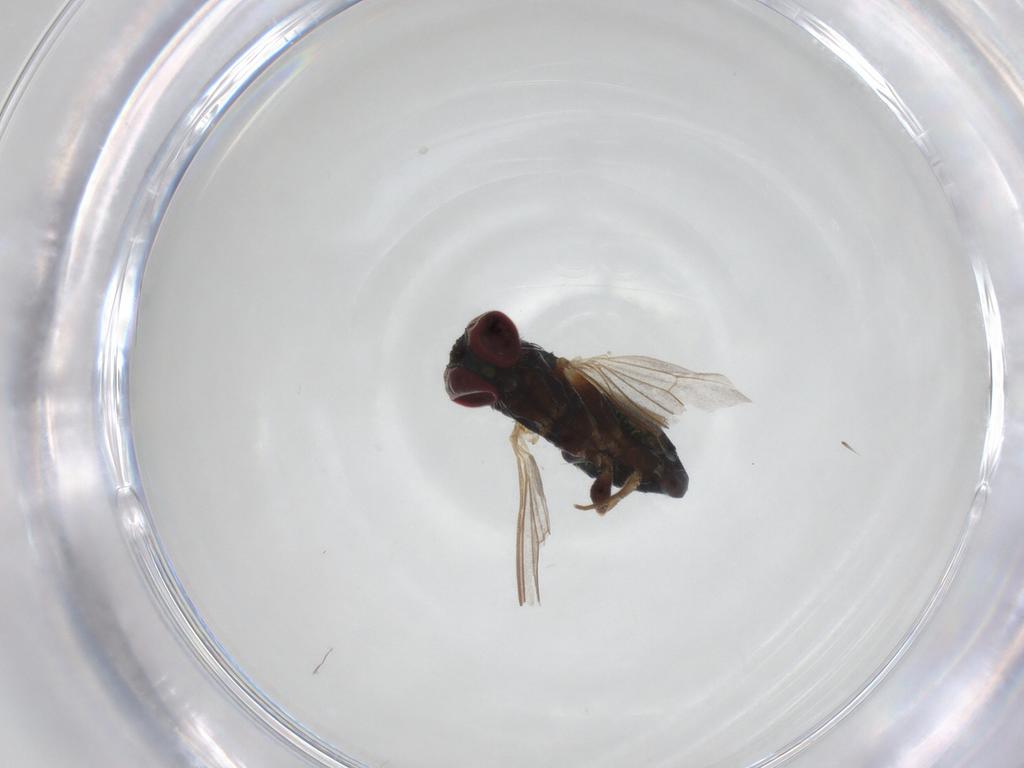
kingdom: Animalia
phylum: Arthropoda
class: Insecta
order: Diptera
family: Dolichopodidae
